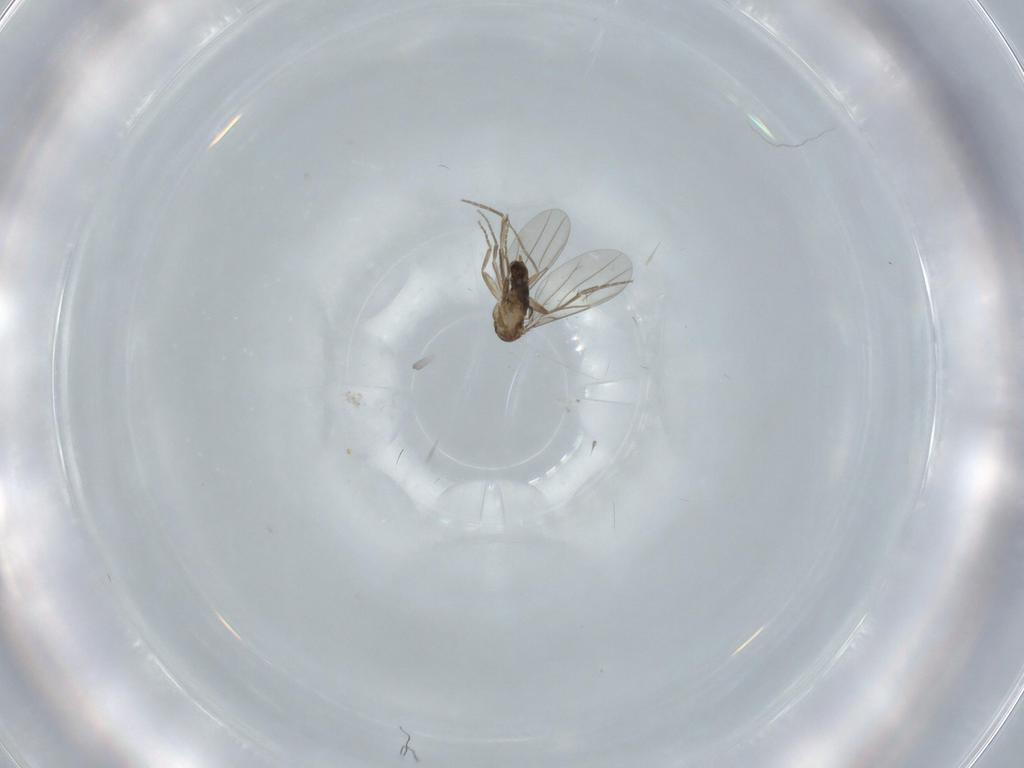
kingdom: Animalia
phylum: Arthropoda
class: Insecta
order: Diptera
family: Phoridae
